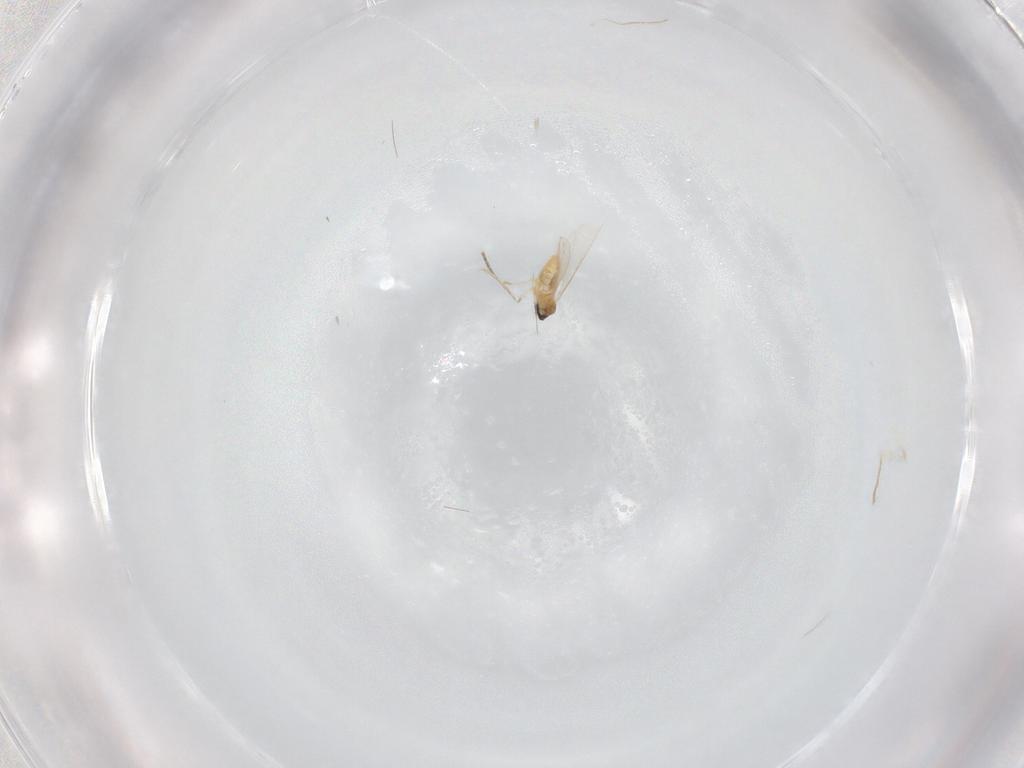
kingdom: Animalia
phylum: Arthropoda
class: Insecta
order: Diptera
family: Cecidomyiidae
